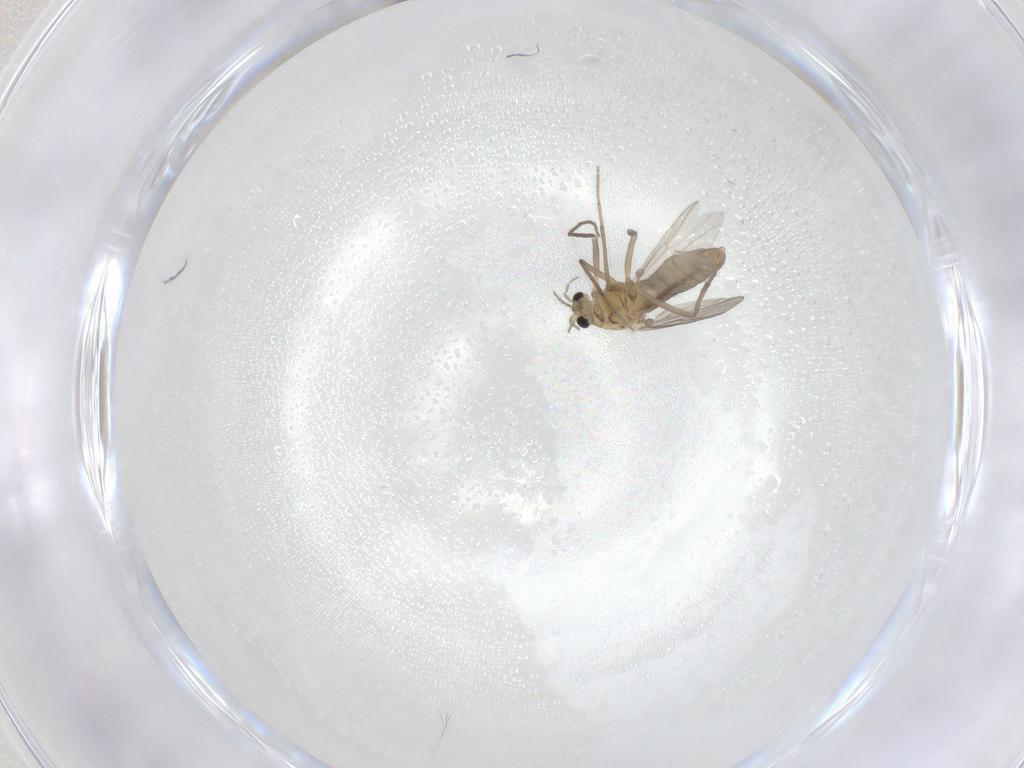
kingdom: Animalia
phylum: Arthropoda
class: Insecta
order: Diptera
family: Chironomidae
